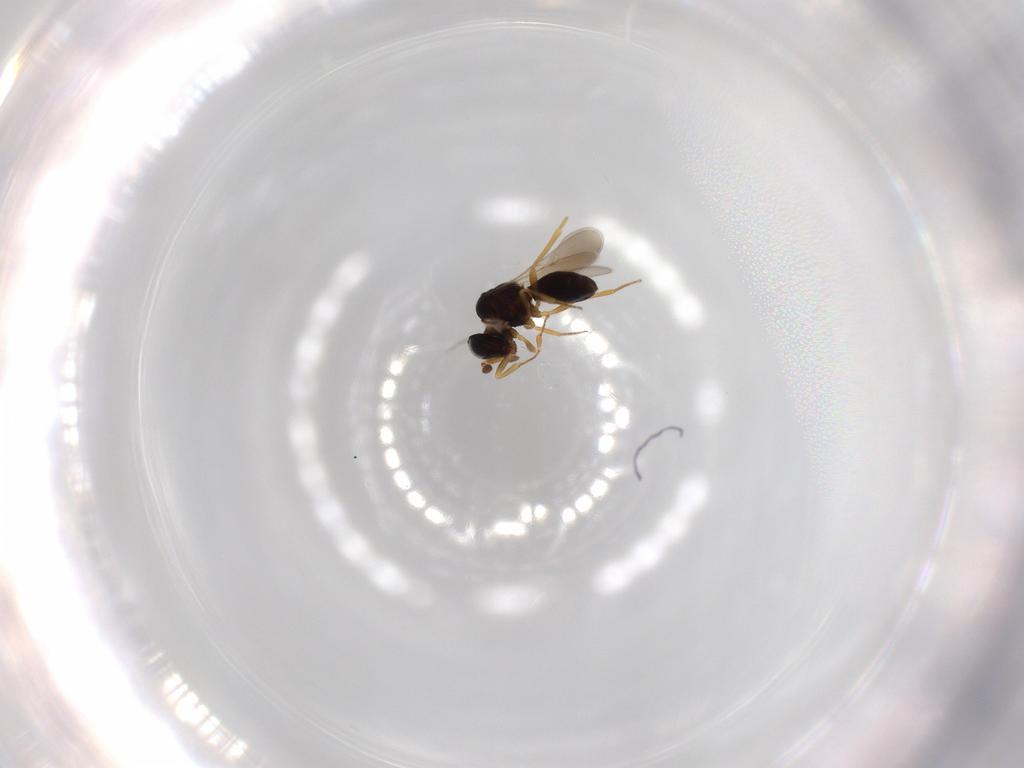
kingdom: Animalia
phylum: Arthropoda
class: Insecta
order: Hymenoptera
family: Scelionidae
